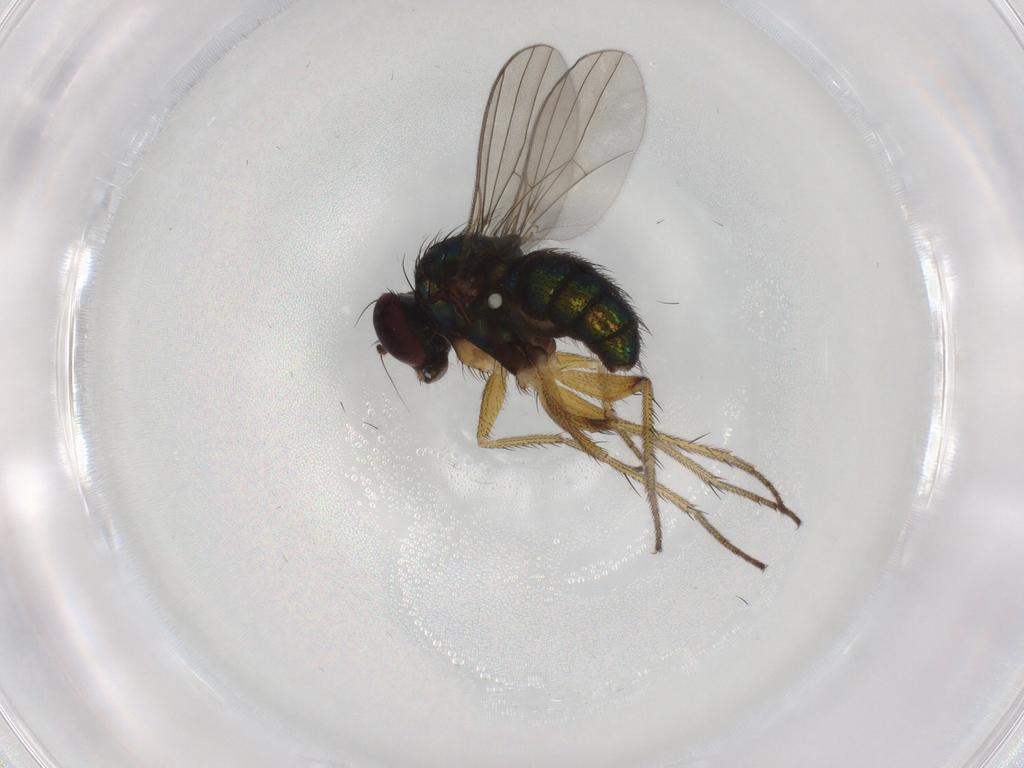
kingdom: Animalia
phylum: Arthropoda
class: Insecta
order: Diptera
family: Dolichopodidae
